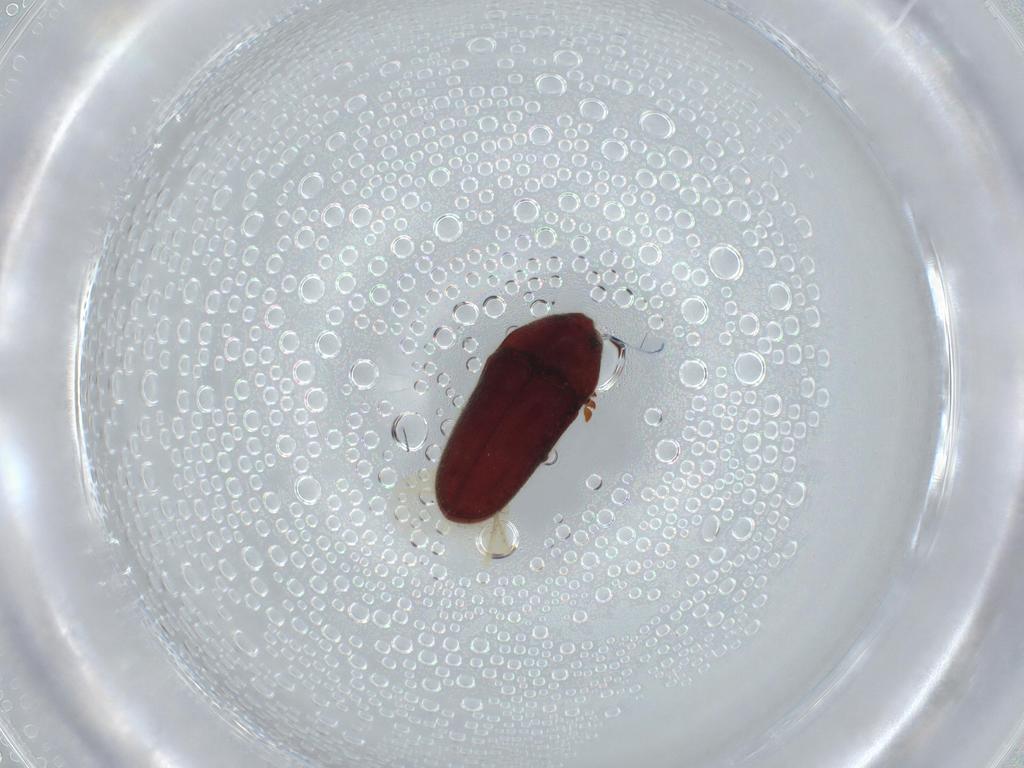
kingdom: Animalia
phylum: Arthropoda
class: Insecta
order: Coleoptera
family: Throscidae
